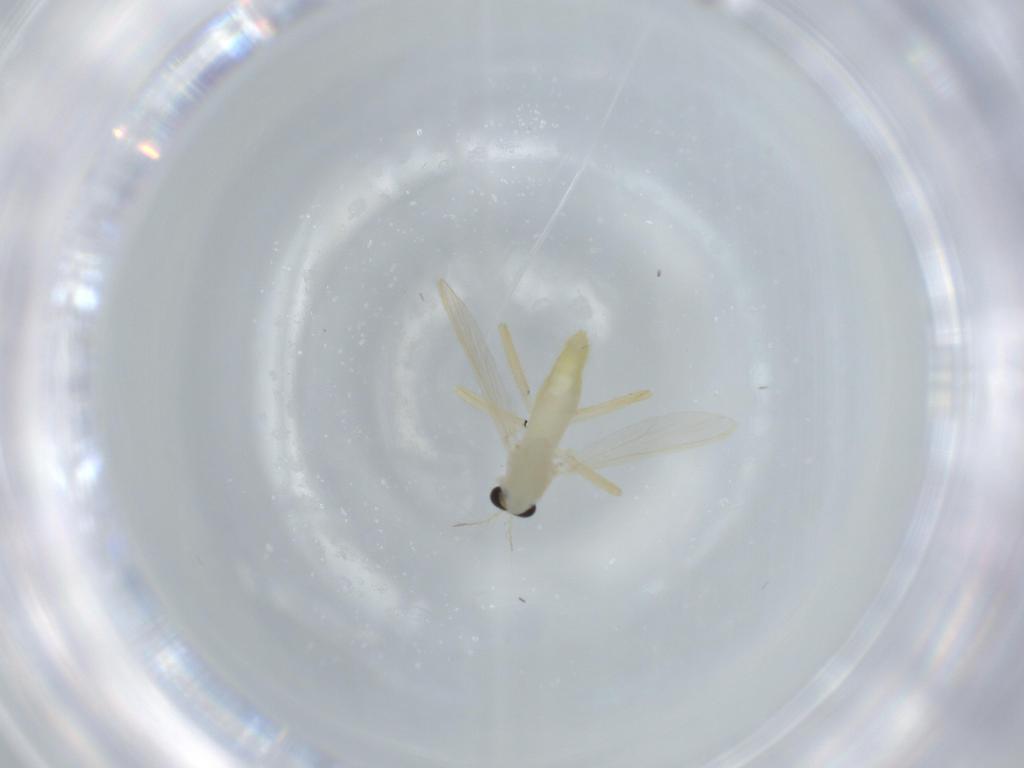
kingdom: Animalia
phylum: Arthropoda
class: Insecta
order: Diptera
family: Chironomidae
